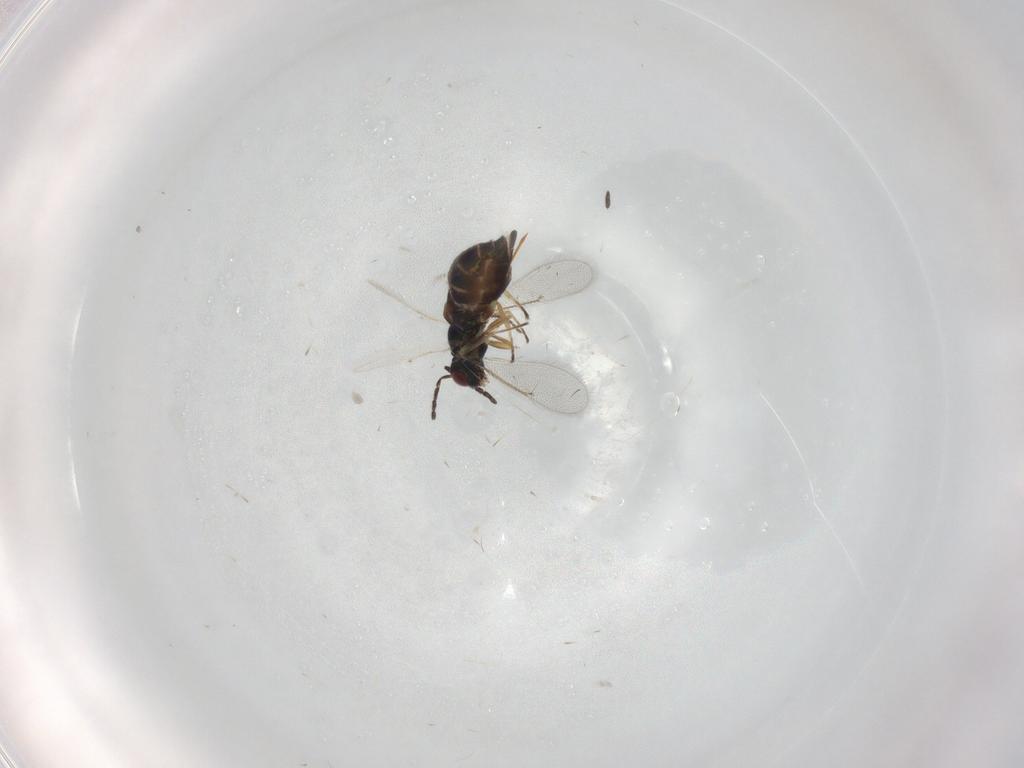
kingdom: Animalia
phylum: Arthropoda
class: Insecta
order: Hymenoptera
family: Eulophidae
